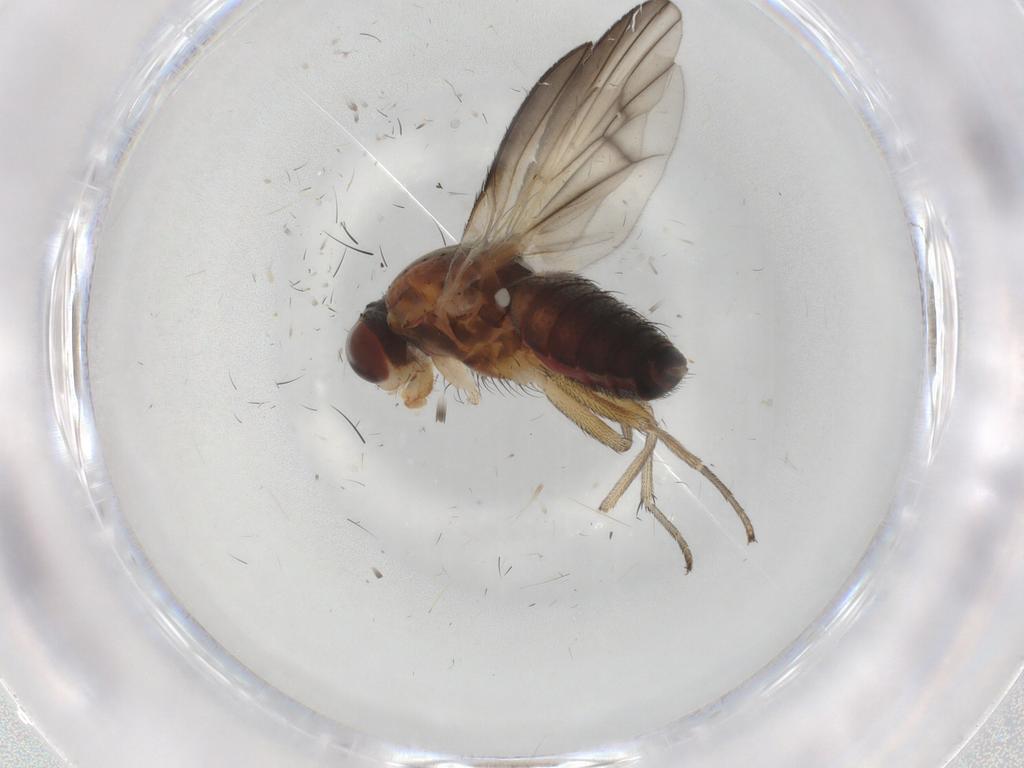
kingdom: Animalia
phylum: Arthropoda
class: Insecta
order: Diptera
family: Heleomyzidae
